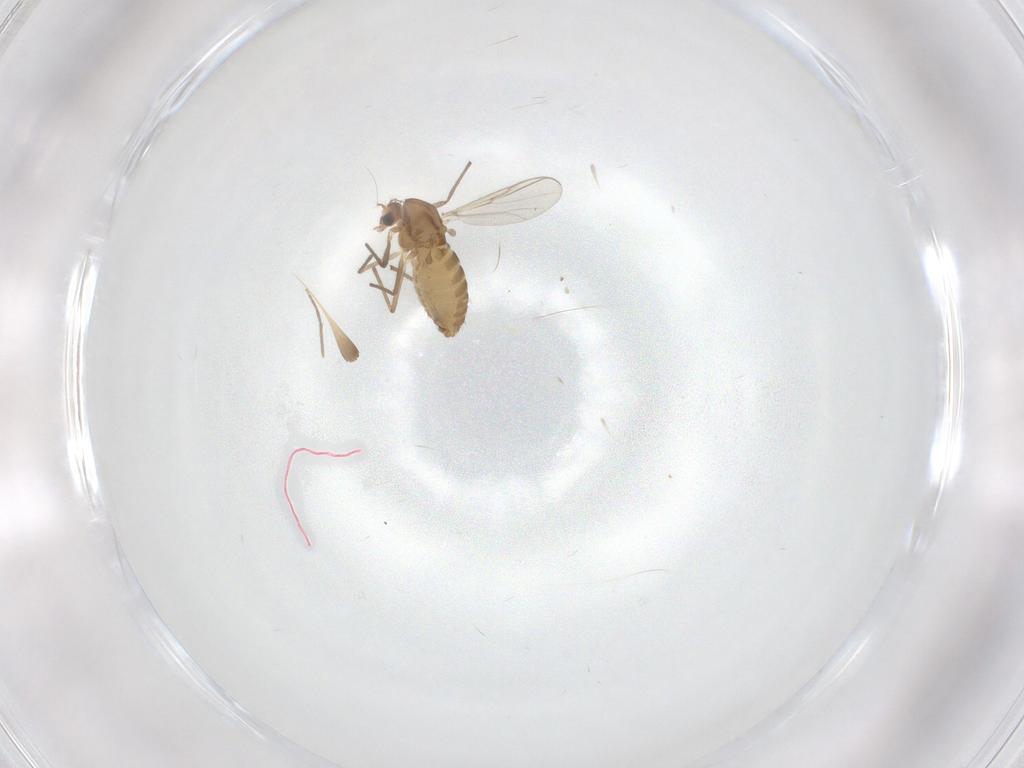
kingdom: Animalia
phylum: Arthropoda
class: Insecta
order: Diptera
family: Chironomidae
